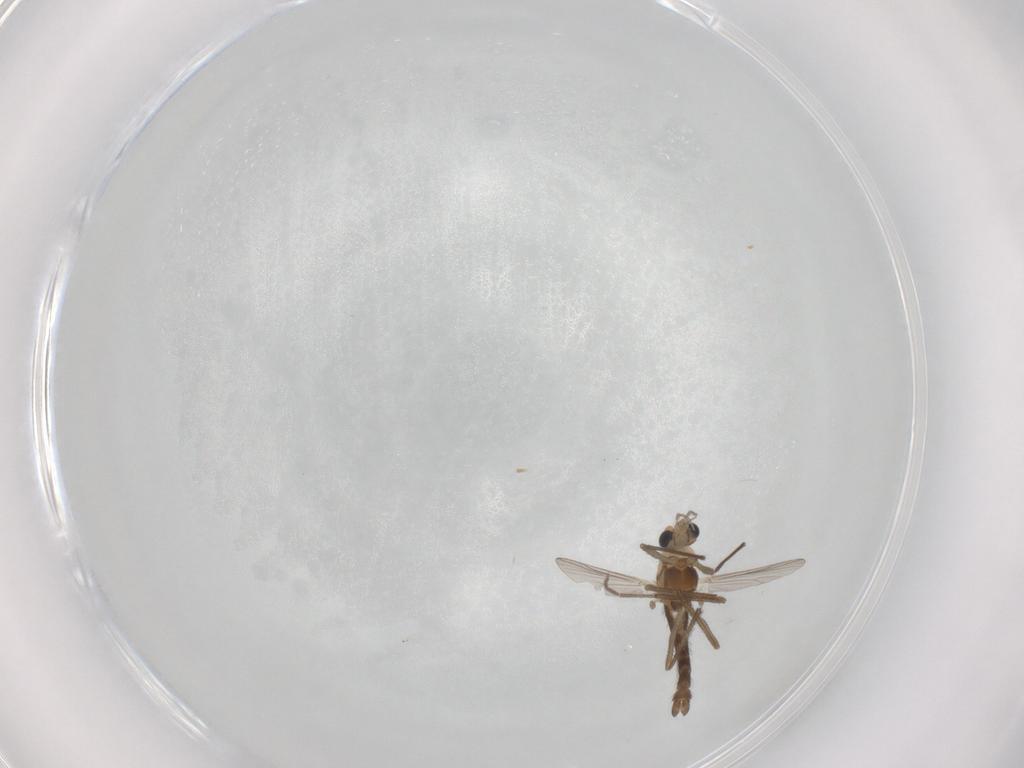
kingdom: Animalia
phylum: Arthropoda
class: Insecta
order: Diptera
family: Chironomidae
